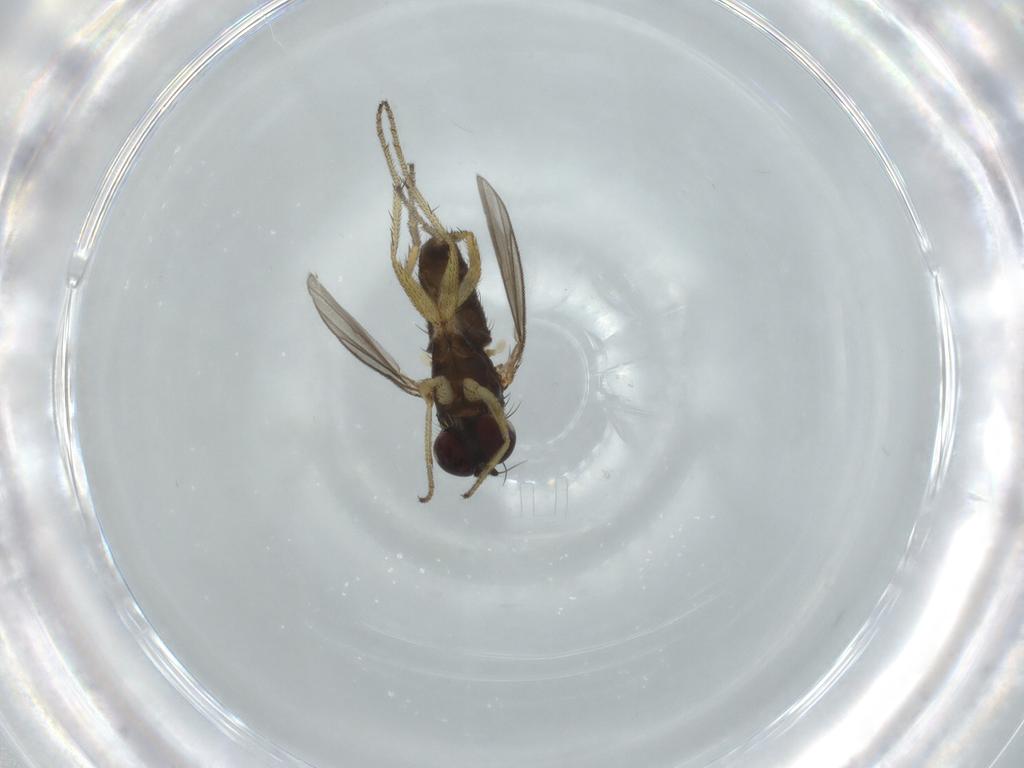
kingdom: Animalia
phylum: Arthropoda
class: Insecta
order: Diptera
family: Dolichopodidae
